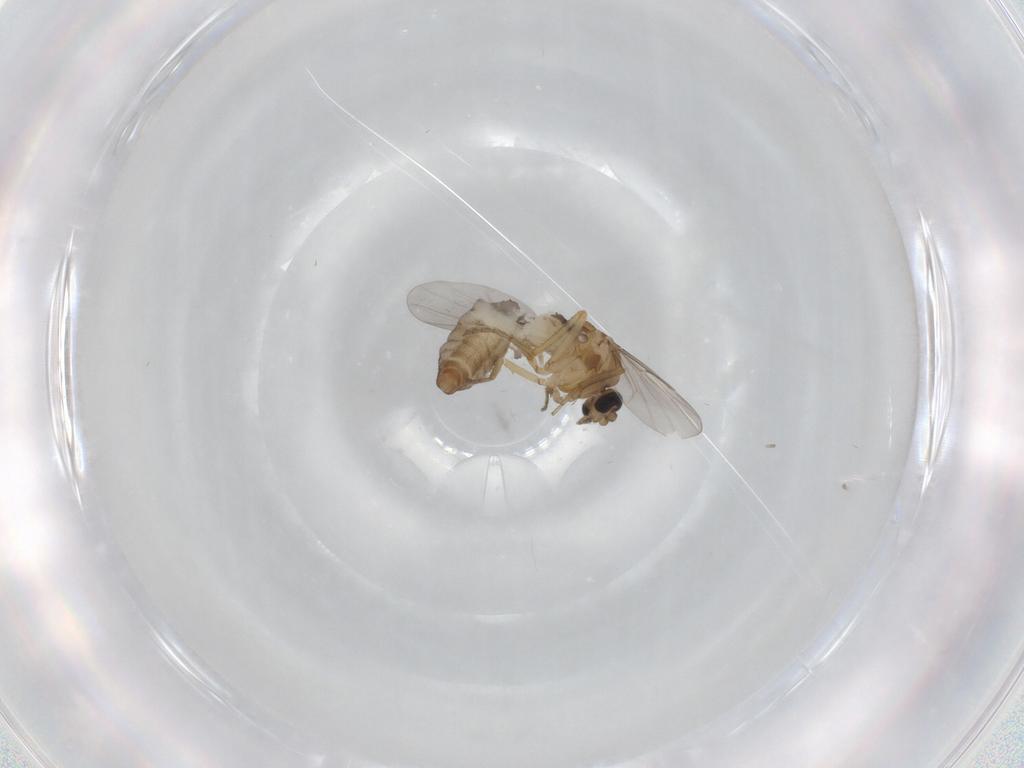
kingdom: Animalia
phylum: Arthropoda
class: Insecta
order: Diptera
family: Ceratopogonidae
